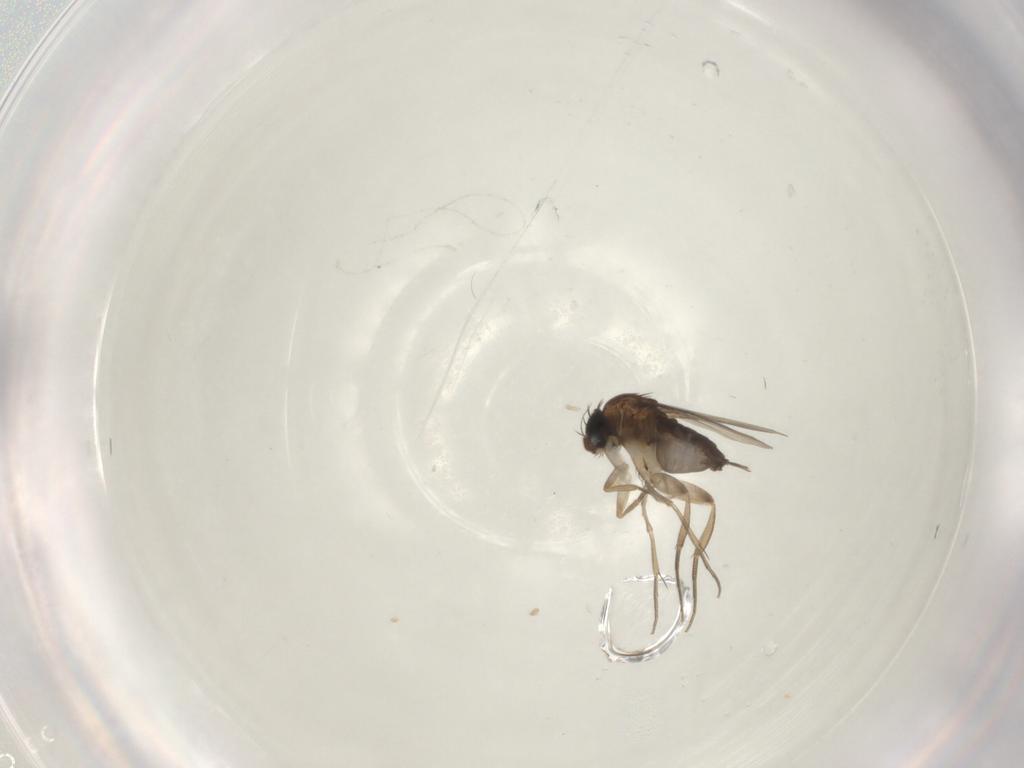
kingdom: Animalia
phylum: Arthropoda
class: Insecta
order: Diptera
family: Phoridae
